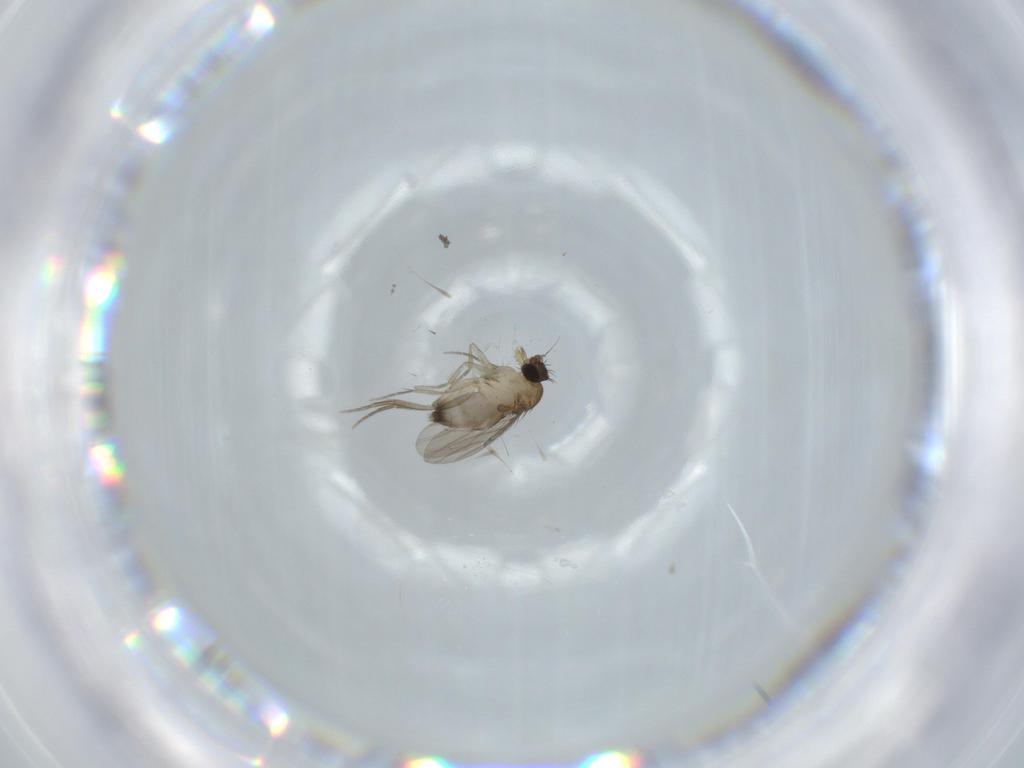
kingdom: Animalia
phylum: Arthropoda
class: Insecta
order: Diptera
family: Phoridae
